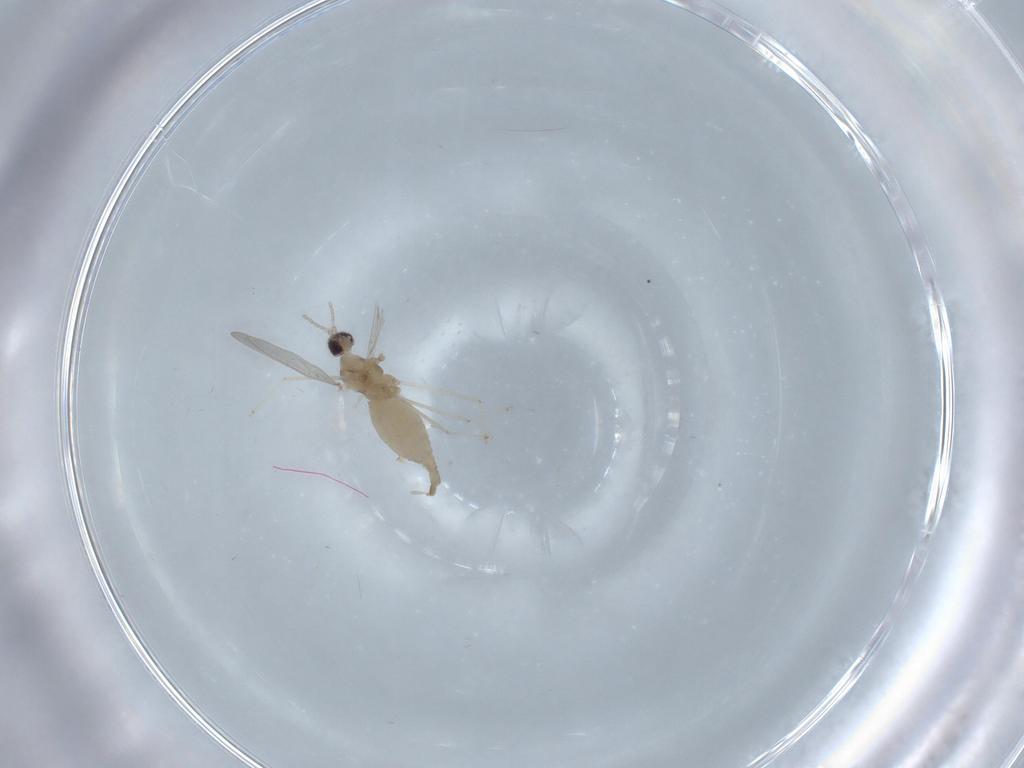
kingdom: Animalia
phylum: Arthropoda
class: Insecta
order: Diptera
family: Cecidomyiidae
